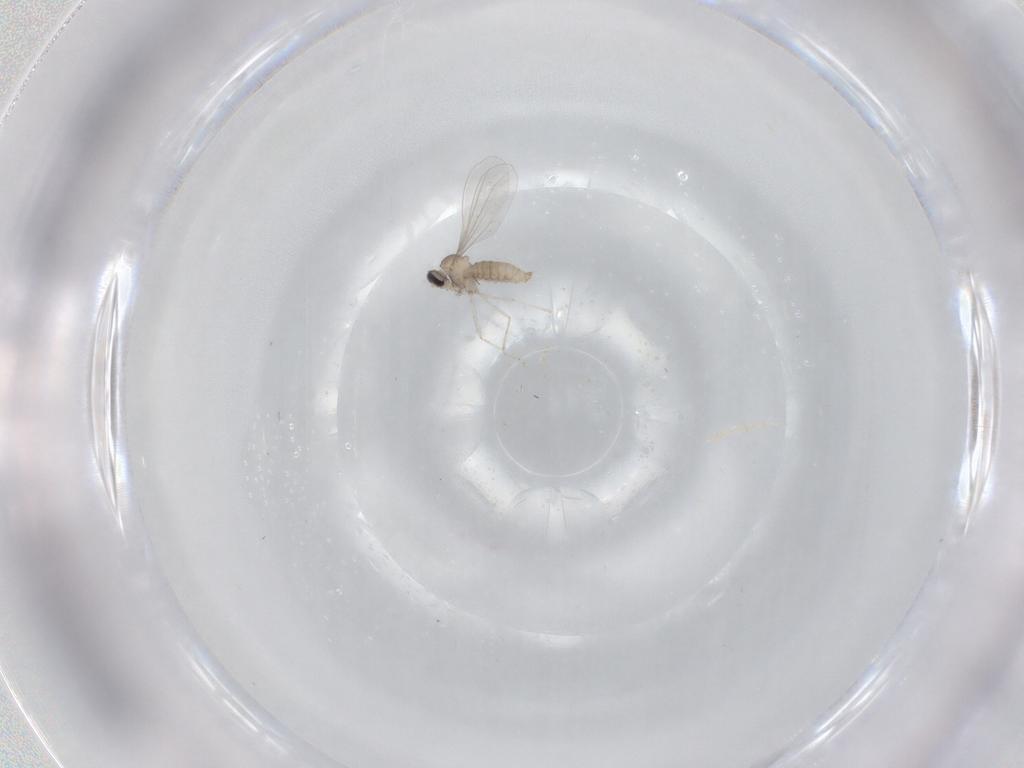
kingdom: Animalia
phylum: Arthropoda
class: Insecta
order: Diptera
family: Cecidomyiidae
